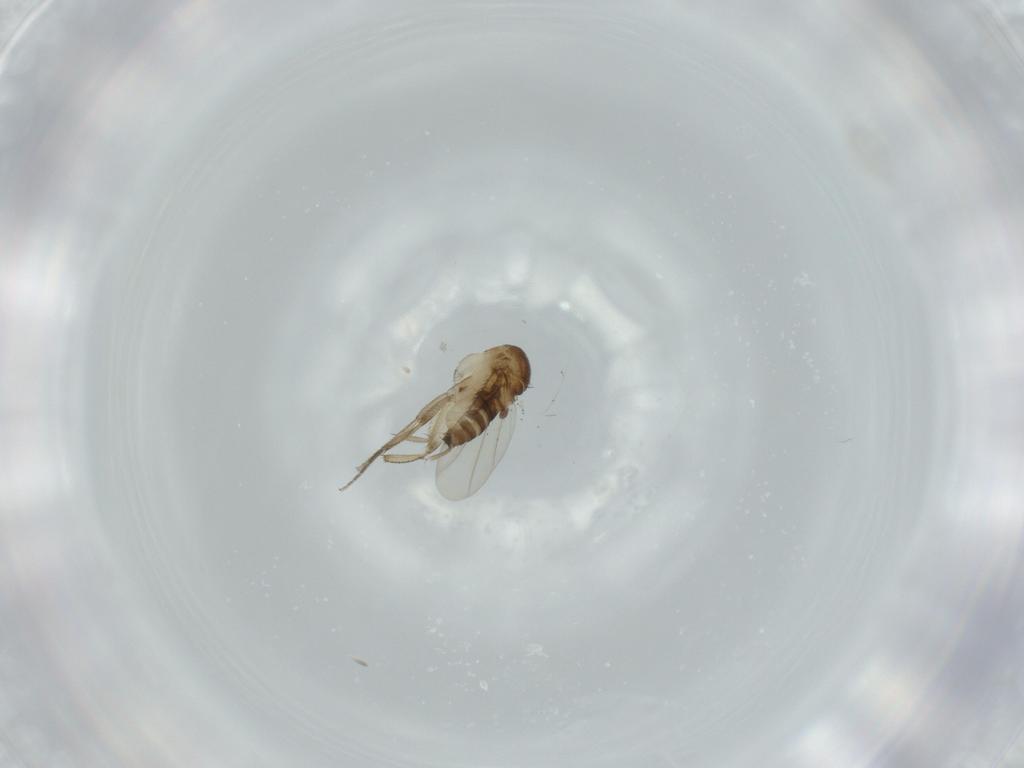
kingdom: Animalia
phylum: Arthropoda
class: Insecta
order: Diptera
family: Phoridae
